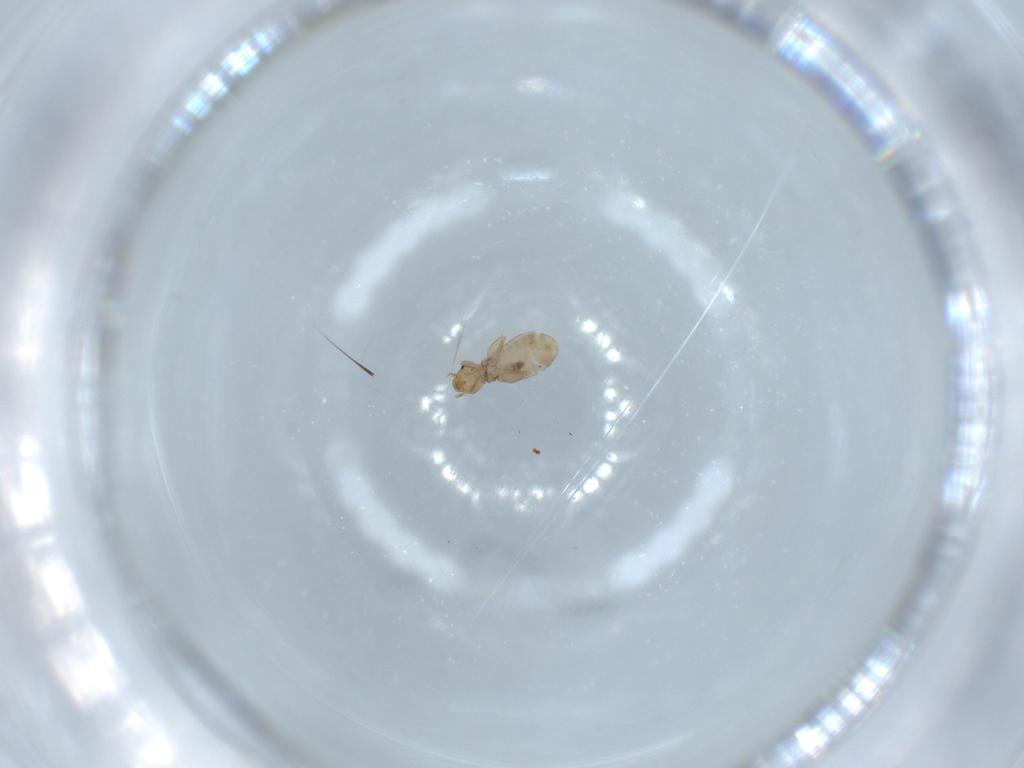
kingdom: Animalia
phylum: Arthropoda
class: Insecta
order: Psocodea
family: Liposcelididae
